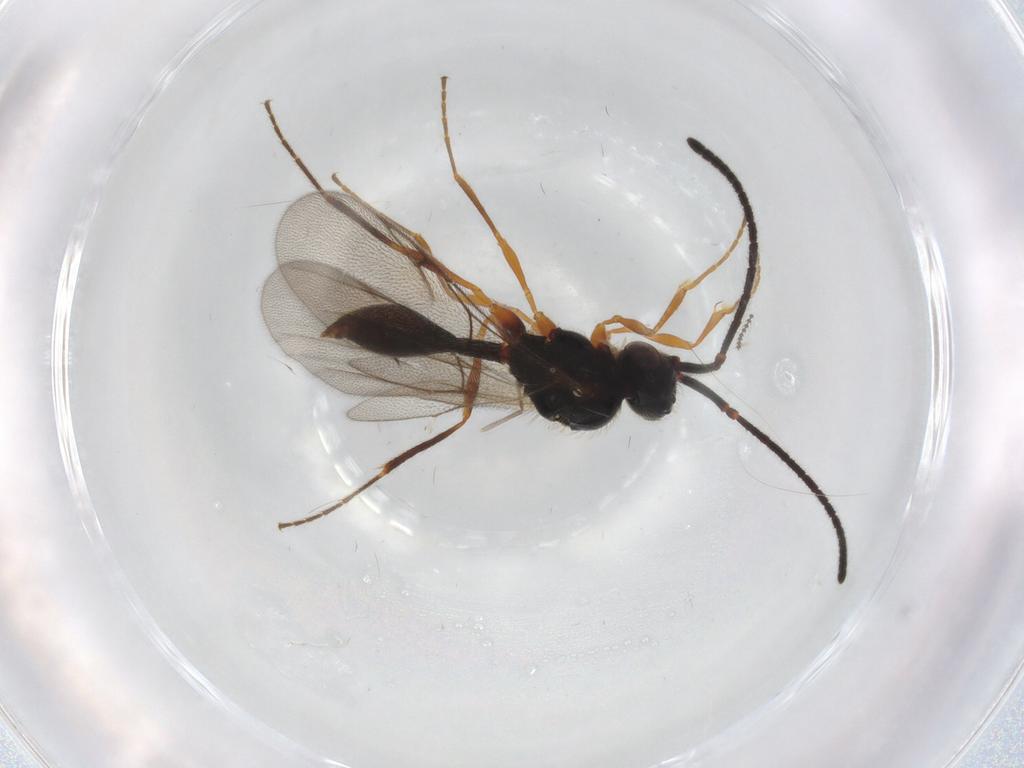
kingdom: Animalia
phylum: Arthropoda
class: Insecta
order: Hymenoptera
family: Diapriidae
